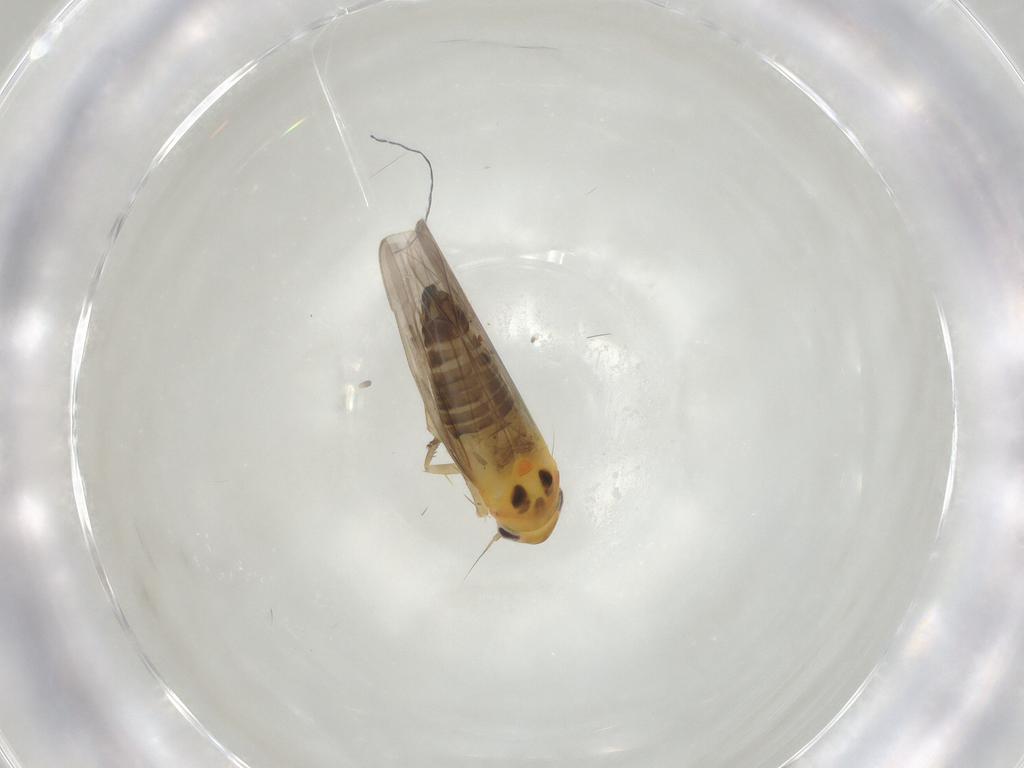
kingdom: Animalia
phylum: Arthropoda
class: Insecta
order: Hemiptera
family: Cicadellidae
